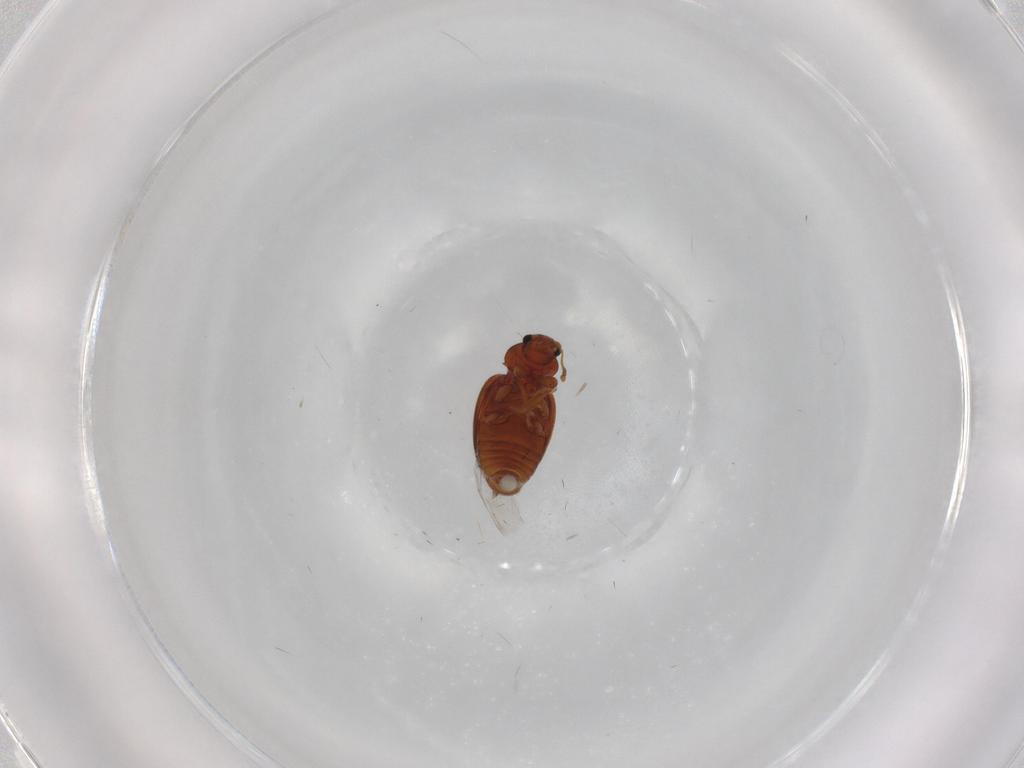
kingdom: Animalia
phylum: Arthropoda
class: Insecta
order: Coleoptera
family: Latridiidae
